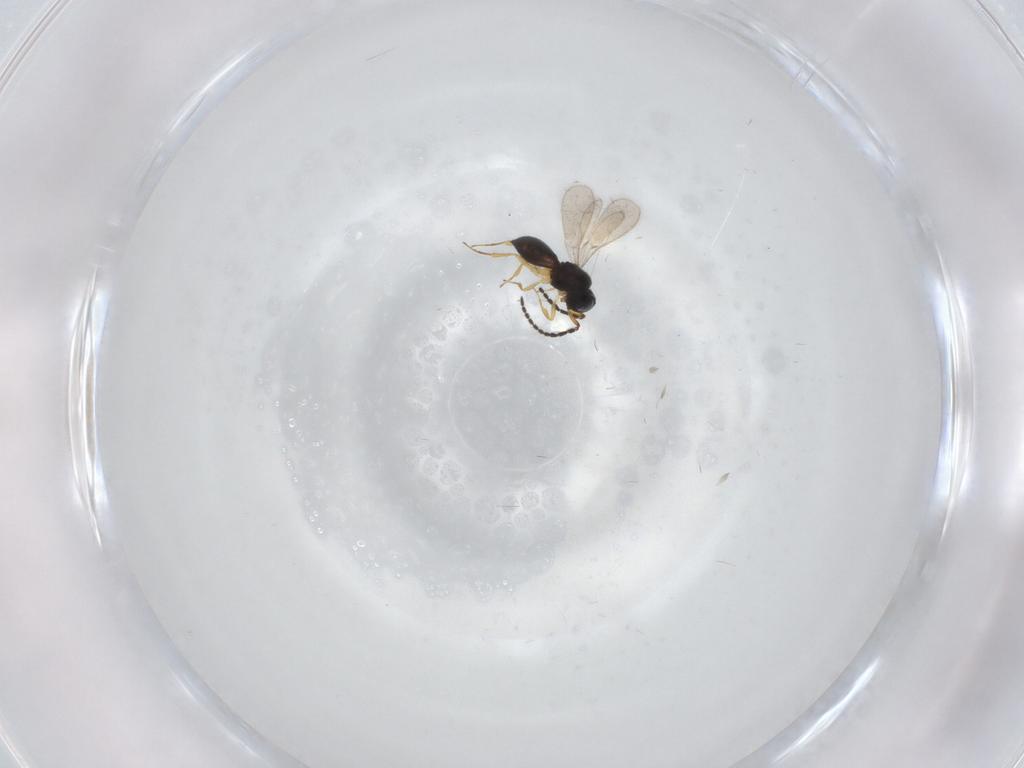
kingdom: Animalia
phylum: Arthropoda
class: Insecta
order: Hymenoptera
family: Scelionidae
